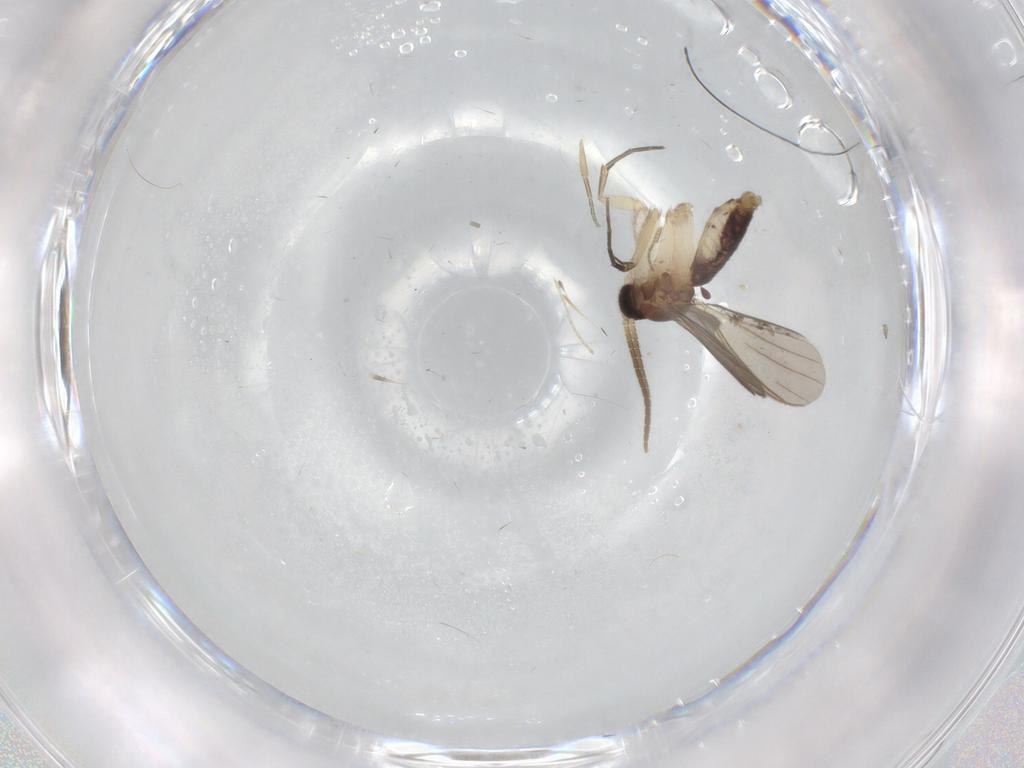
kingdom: Animalia
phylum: Arthropoda
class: Insecta
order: Diptera
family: Mycetophilidae
